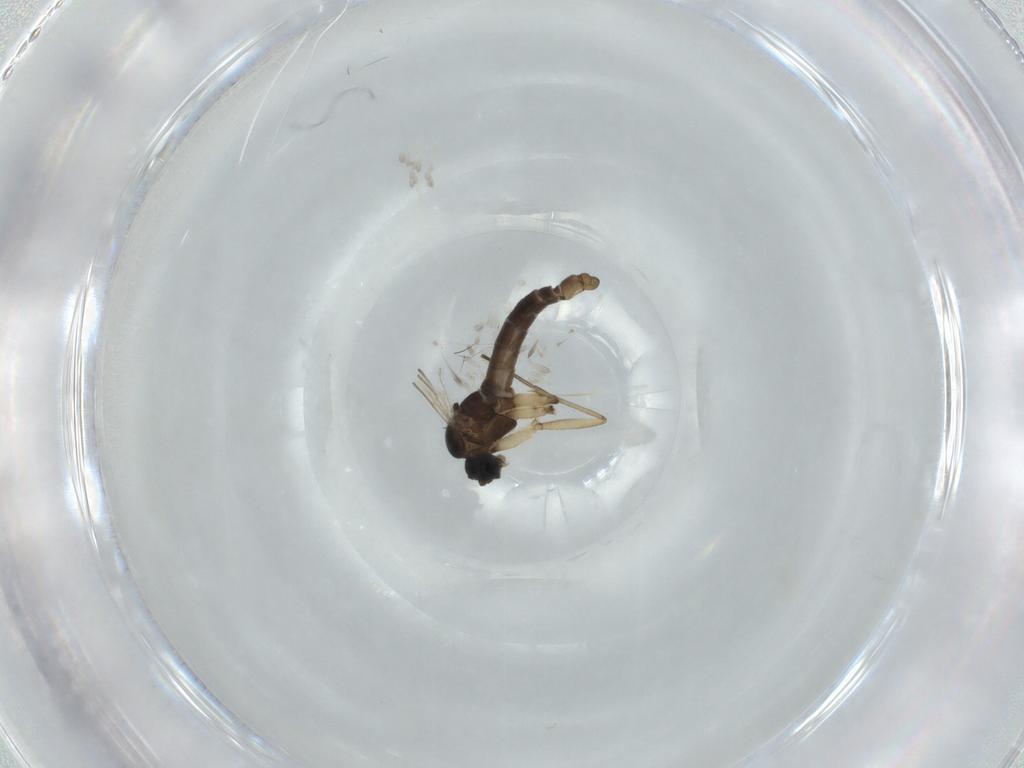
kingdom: Animalia
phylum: Arthropoda
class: Insecta
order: Diptera
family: Sciaridae
